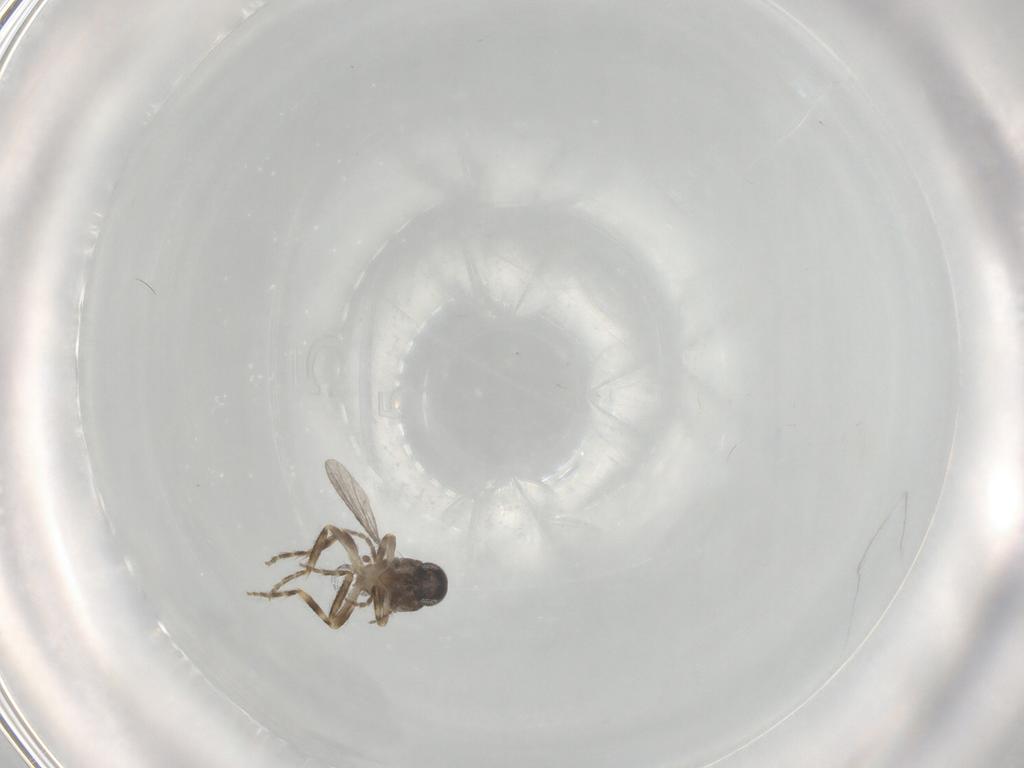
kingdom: Animalia
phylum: Arthropoda
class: Insecta
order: Diptera
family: Ceratopogonidae
